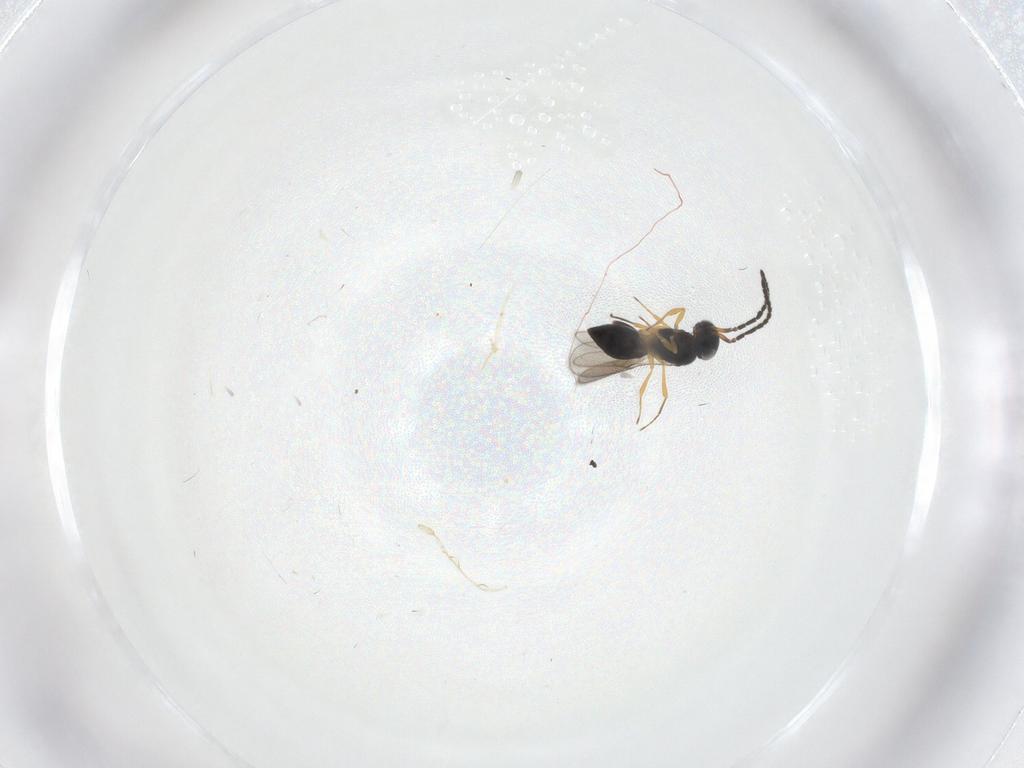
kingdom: Animalia
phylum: Arthropoda
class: Insecta
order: Hymenoptera
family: Scelionidae
